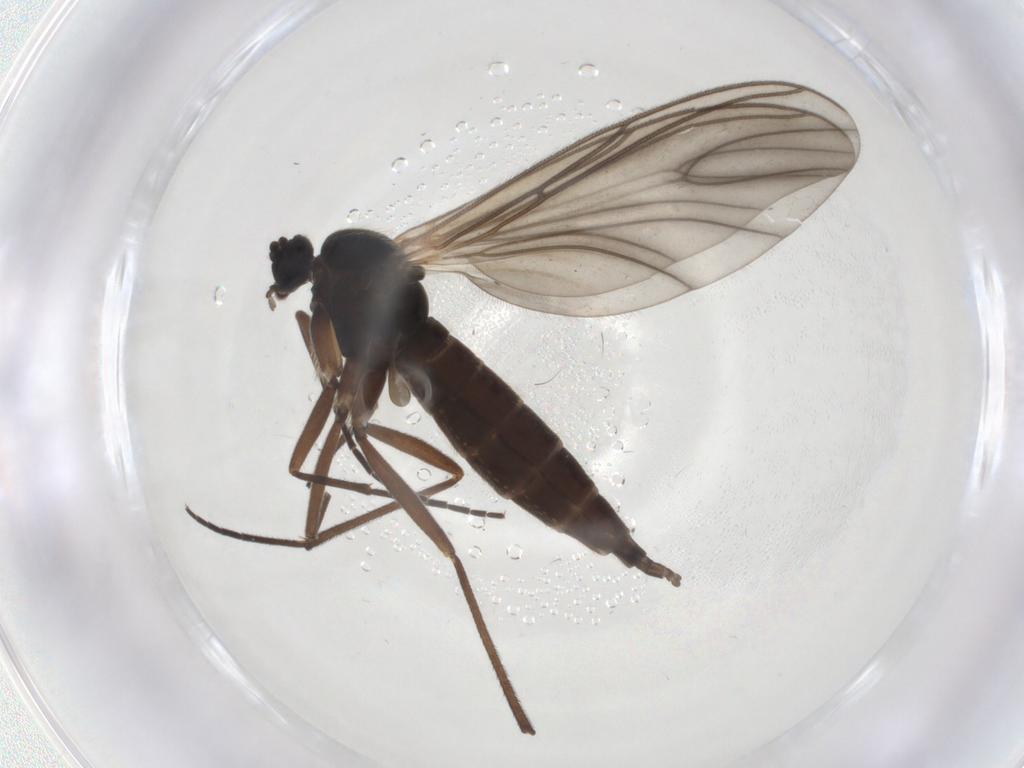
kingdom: Animalia
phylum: Arthropoda
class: Insecta
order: Diptera
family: Sciaridae
